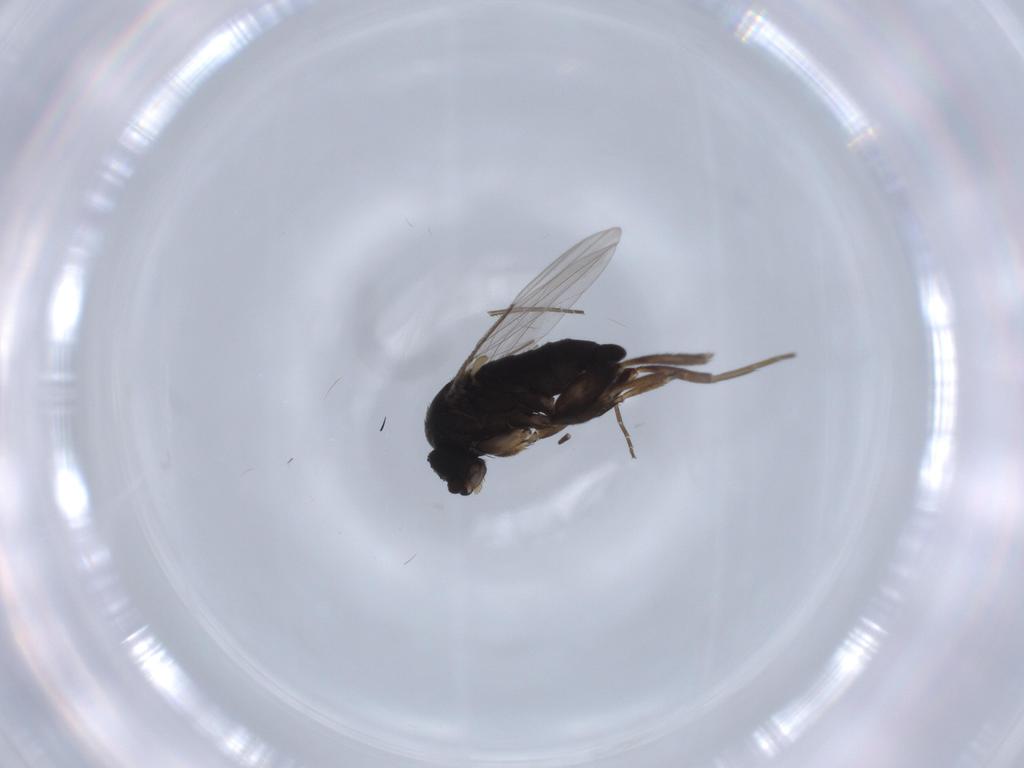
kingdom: Animalia
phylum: Arthropoda
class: Insecta
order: Diptera
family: Phoridae
